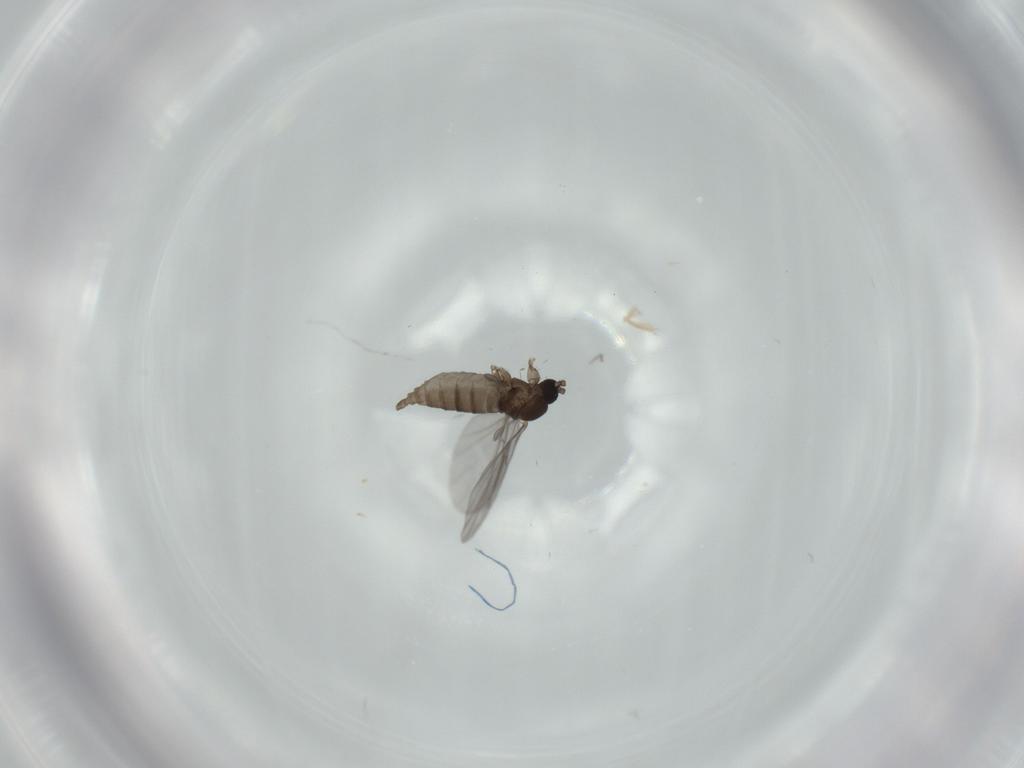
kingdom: Animalia
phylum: Arthropoda
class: Insecta
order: Diptera
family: Sciaridae
